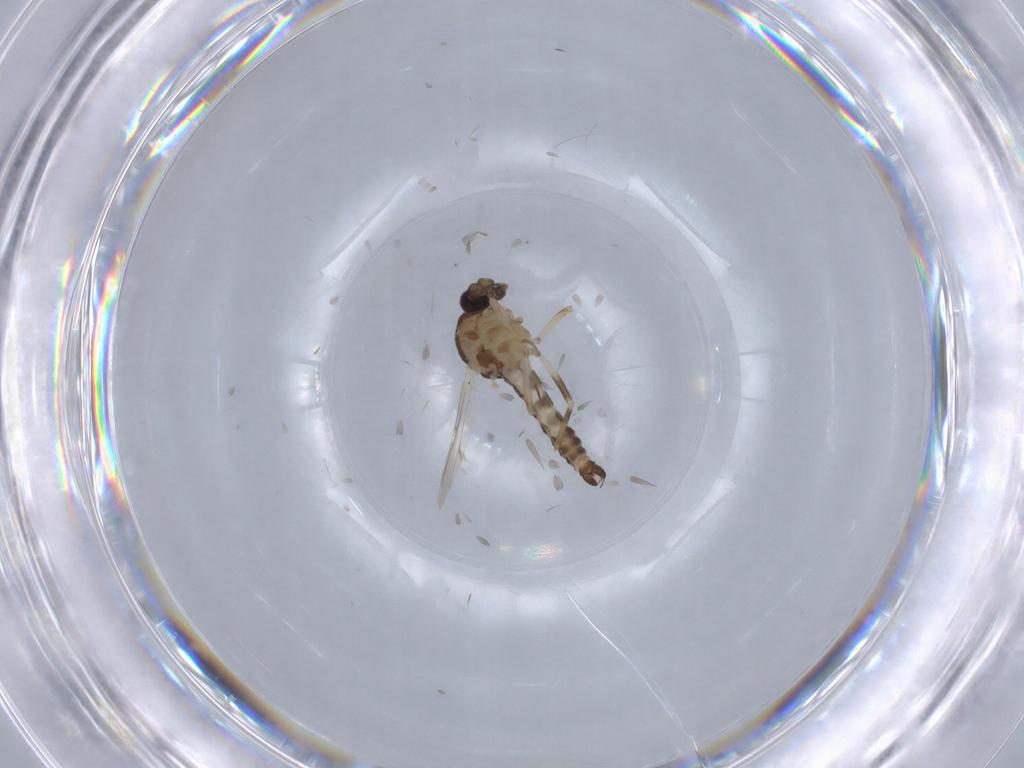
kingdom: Animalia
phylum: Arthropoda
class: Insecta
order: Diptera
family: Ceratopogonidae
